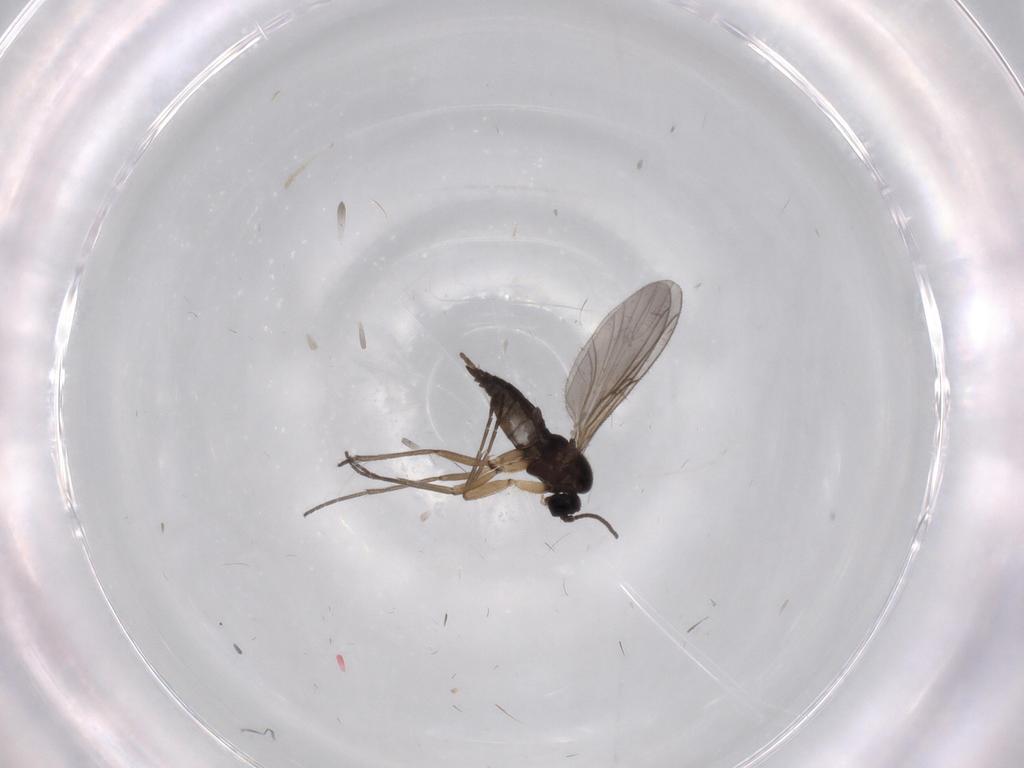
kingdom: Animalia
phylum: Arthropoda
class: Insecta
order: Diptera
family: Sciaridae
